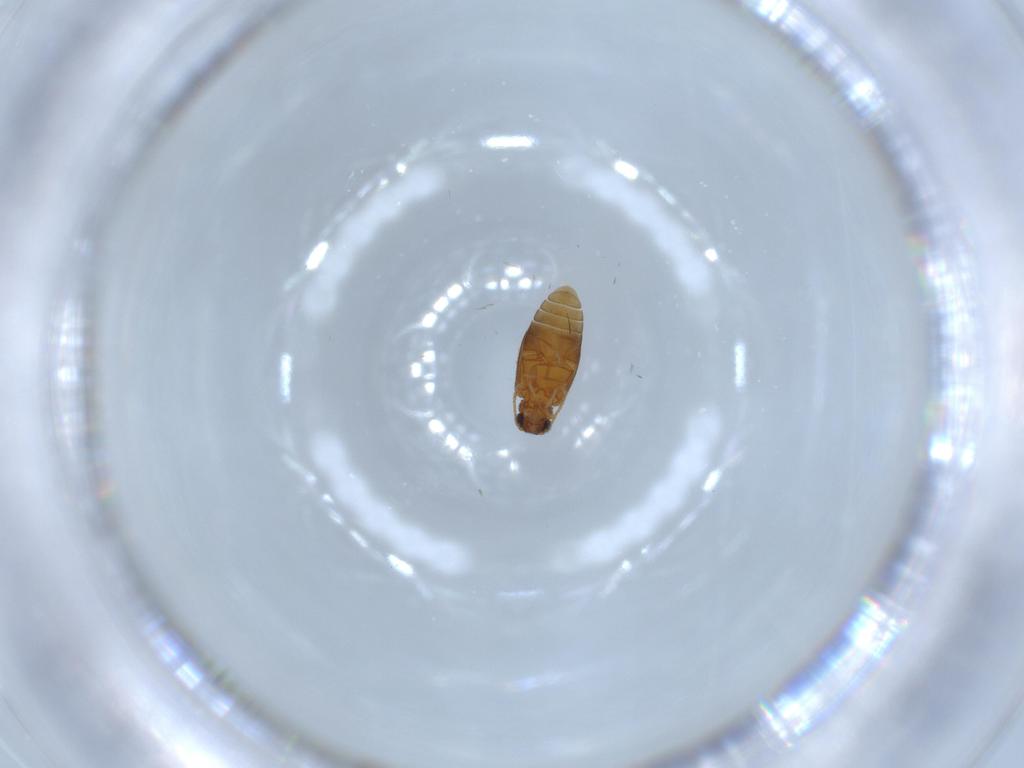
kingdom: Animalia
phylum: Arthropoda
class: Insecta
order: Coleoptera
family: Aderidae
